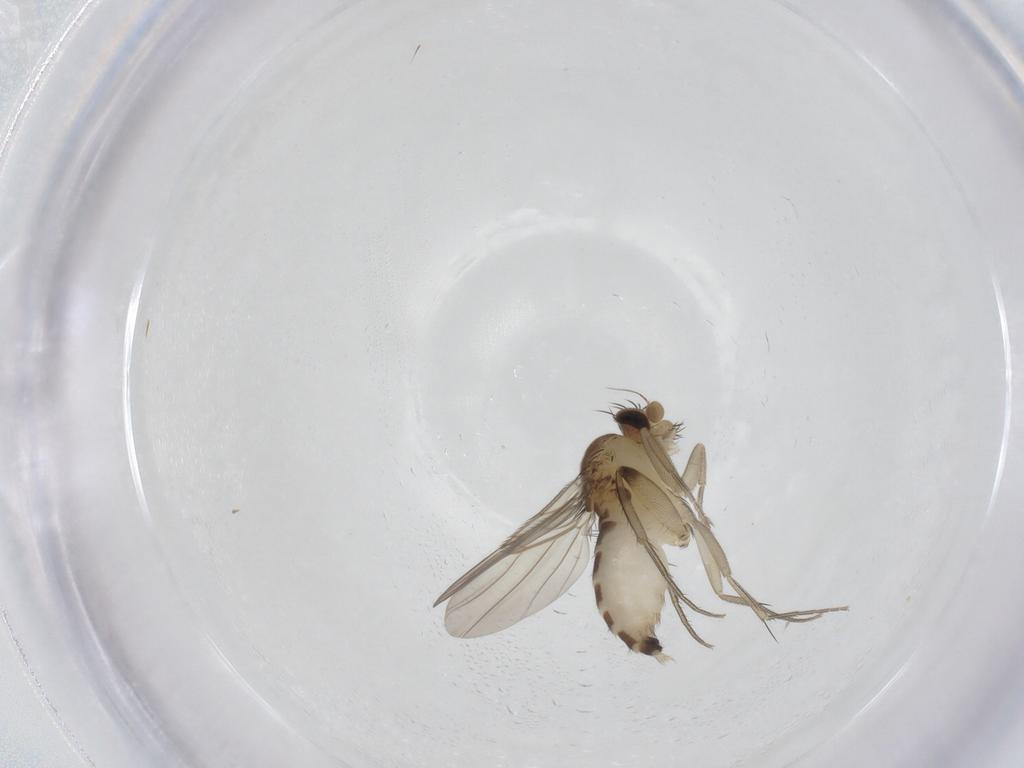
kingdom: Animalia
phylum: Arthropoda
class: Insecta
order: Diptera
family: Phoridae
